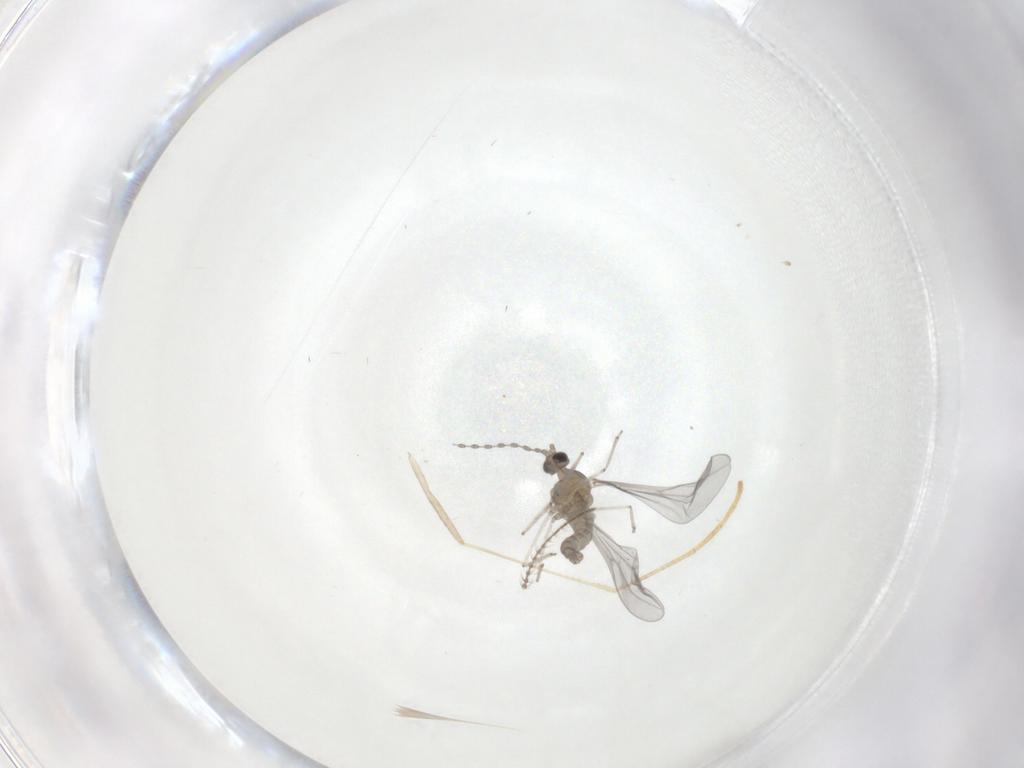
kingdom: Animalia
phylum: Arthropoda
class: Insecta
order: Diptera
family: Cecidomyiidae
